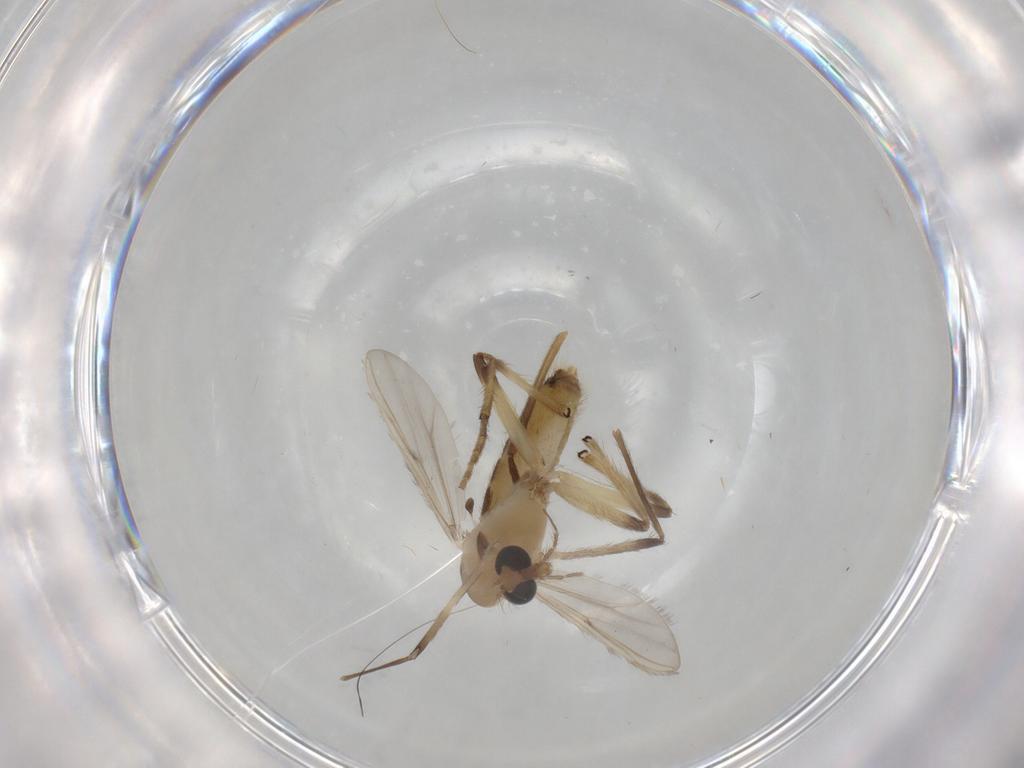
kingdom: Animalia
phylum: Arthropoda
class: Insecta
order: Diptera
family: Chironomidae
